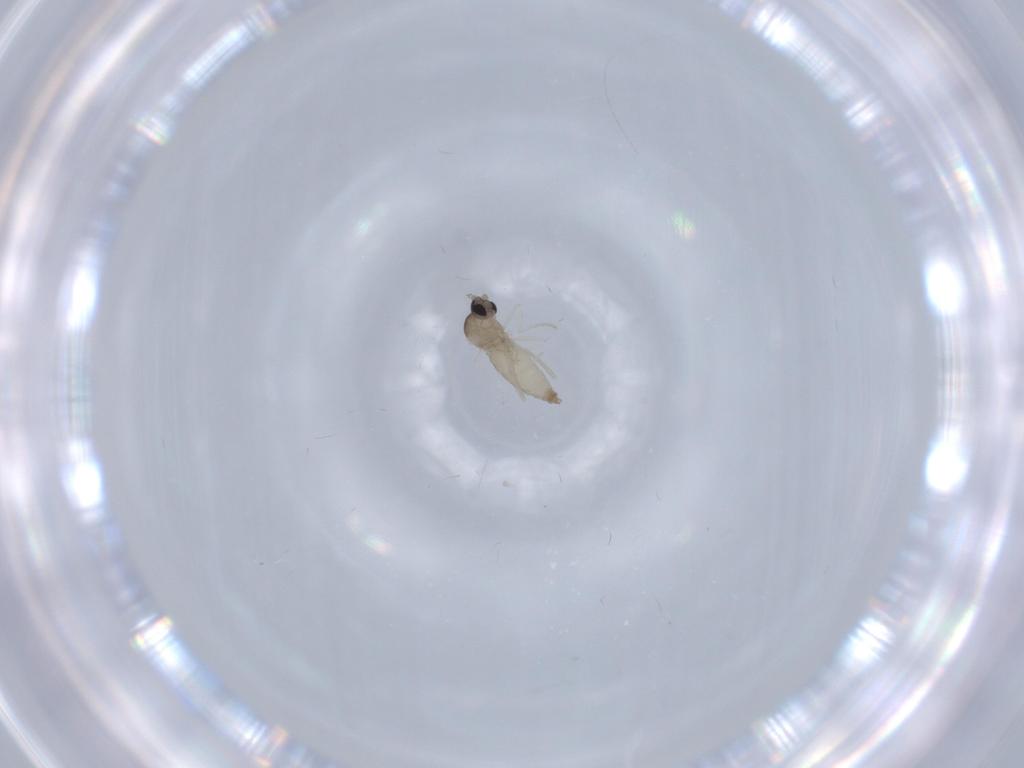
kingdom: Animalia
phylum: Arthropoda
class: Insecta
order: Diptera
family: Cecidomyiidae
